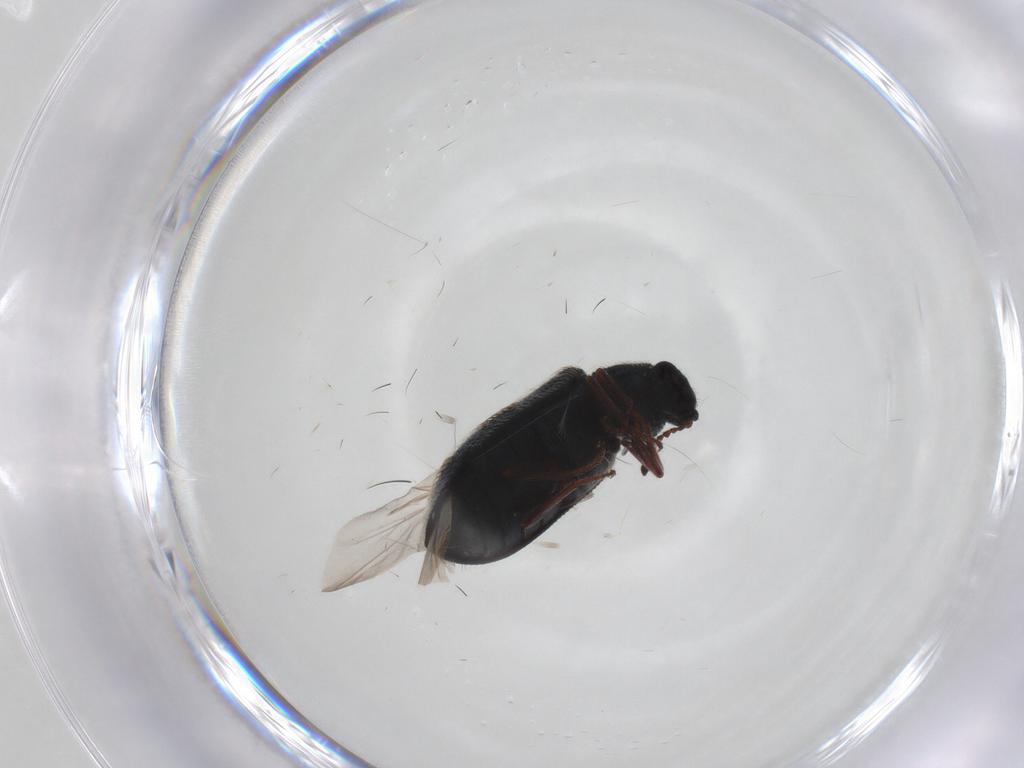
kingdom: Animalia
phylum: Arthropoda
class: Insecta
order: Coleoptera
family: Melyridae
